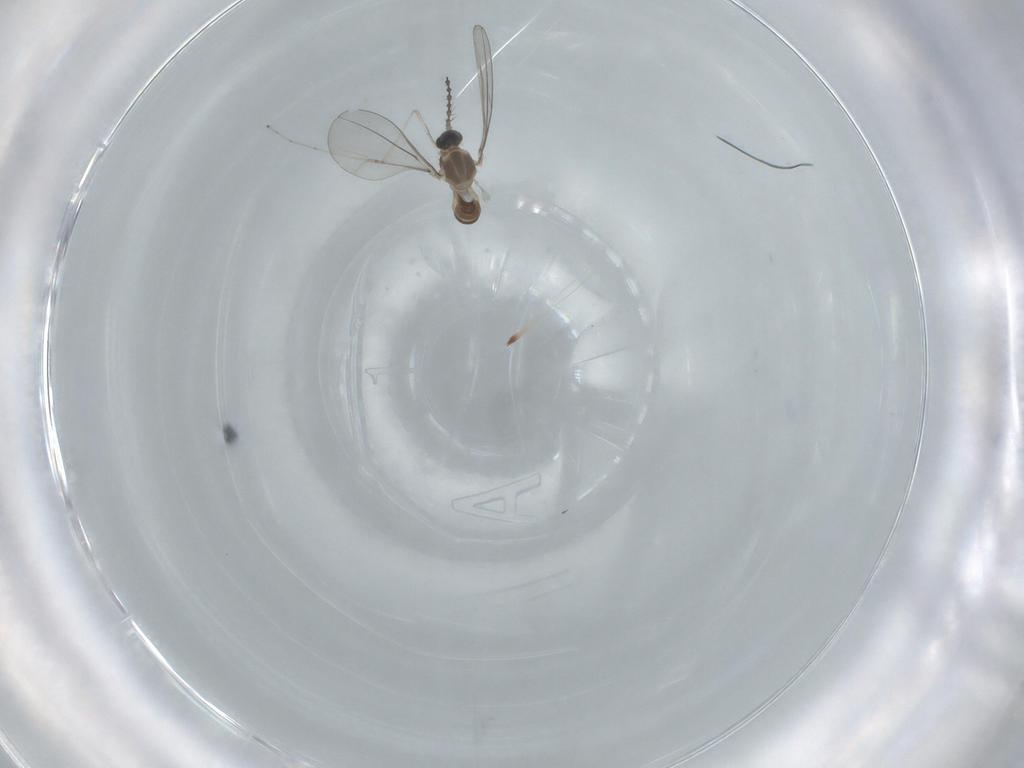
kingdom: Animalia
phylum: Arthropoda
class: Insecta
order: Diptera
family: Cecidomyiidae
